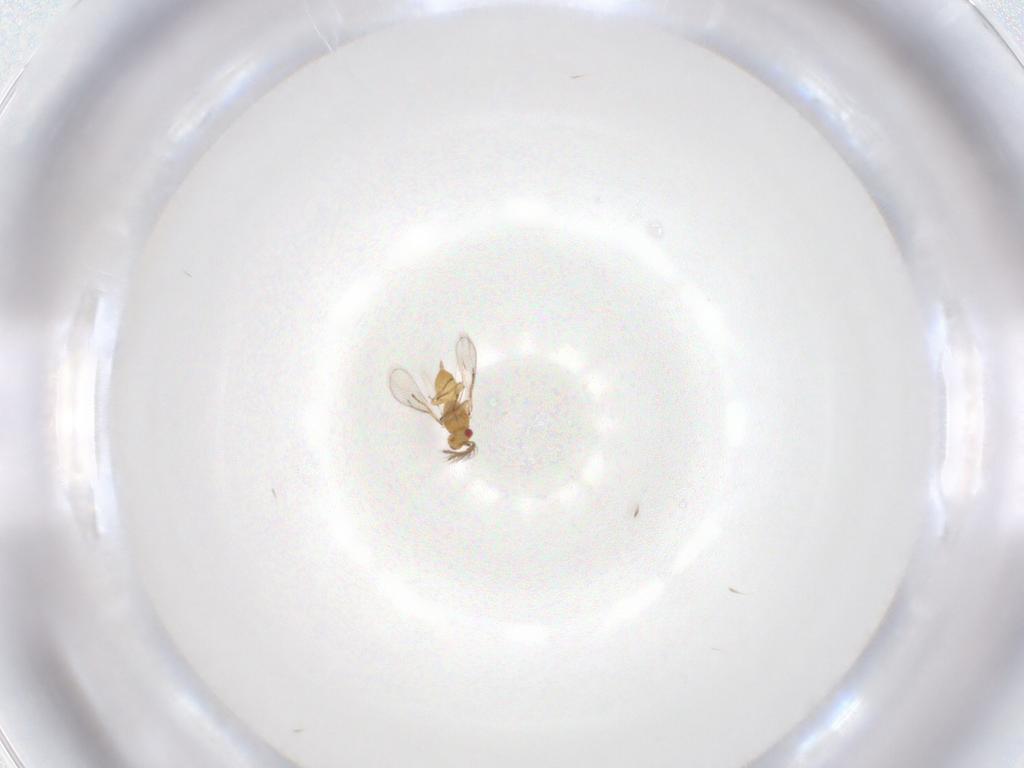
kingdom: Animalia
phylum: Arthropoda
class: Insecta
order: Hymenoptera
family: Eulophidae
